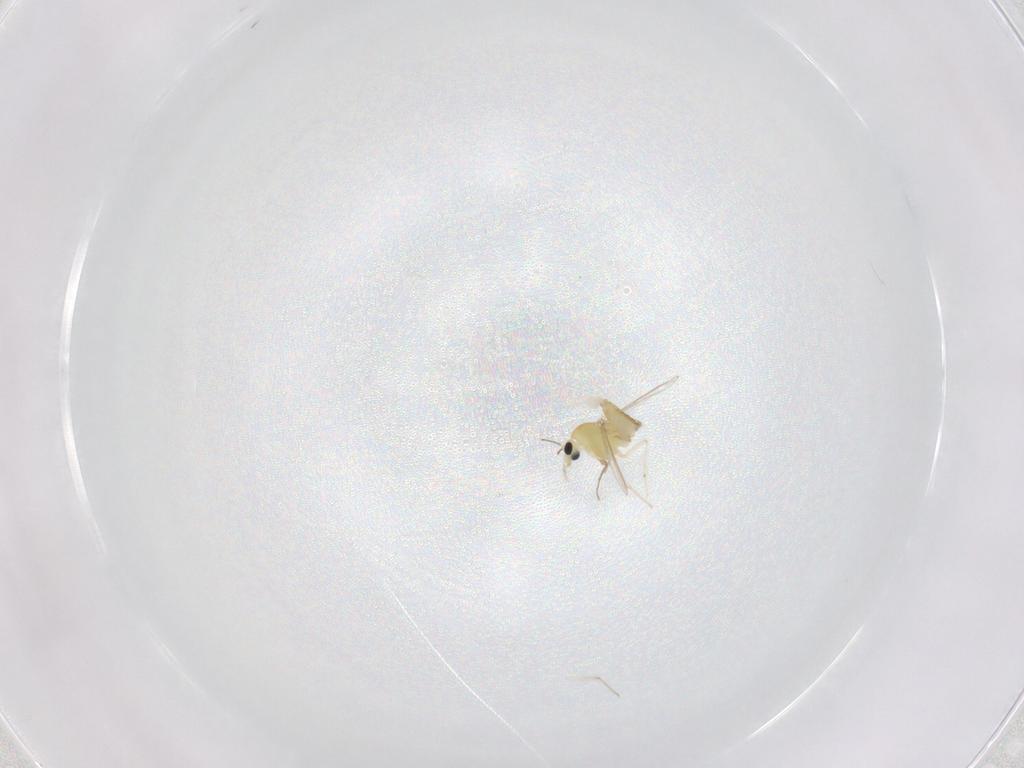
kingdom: Animalia
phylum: Arthropoda
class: Insecta
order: Diptera
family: Chironomidae
